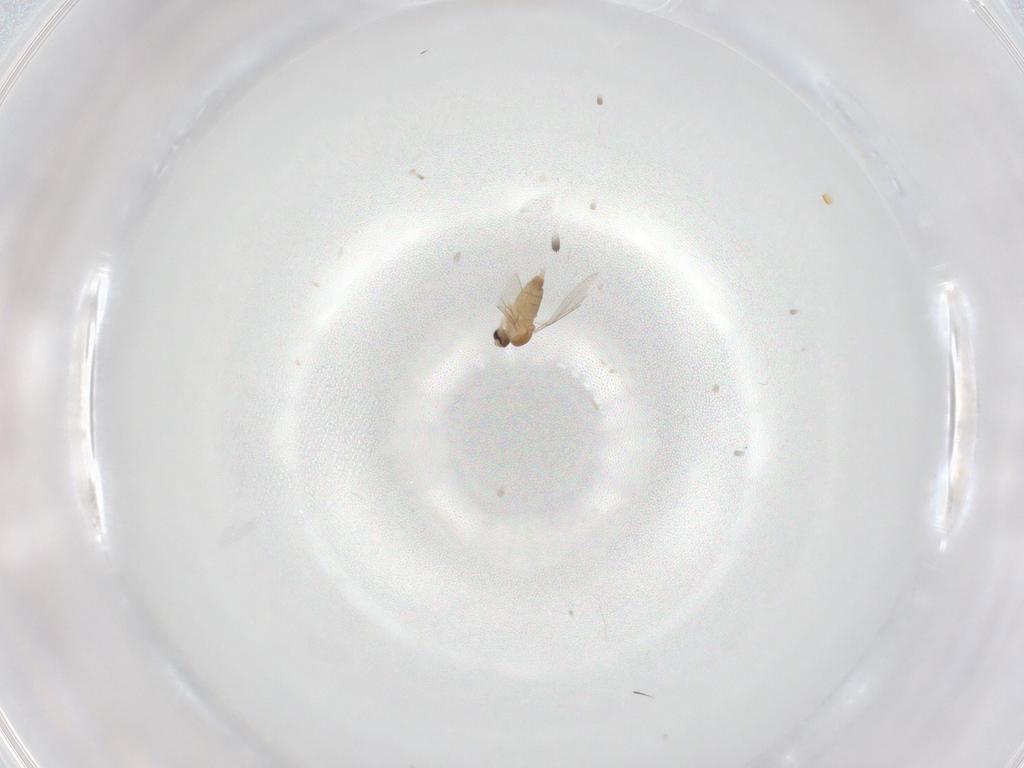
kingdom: Animalia
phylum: Arthropoda
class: Insecta
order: Diptera
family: Cecidomyiidae
